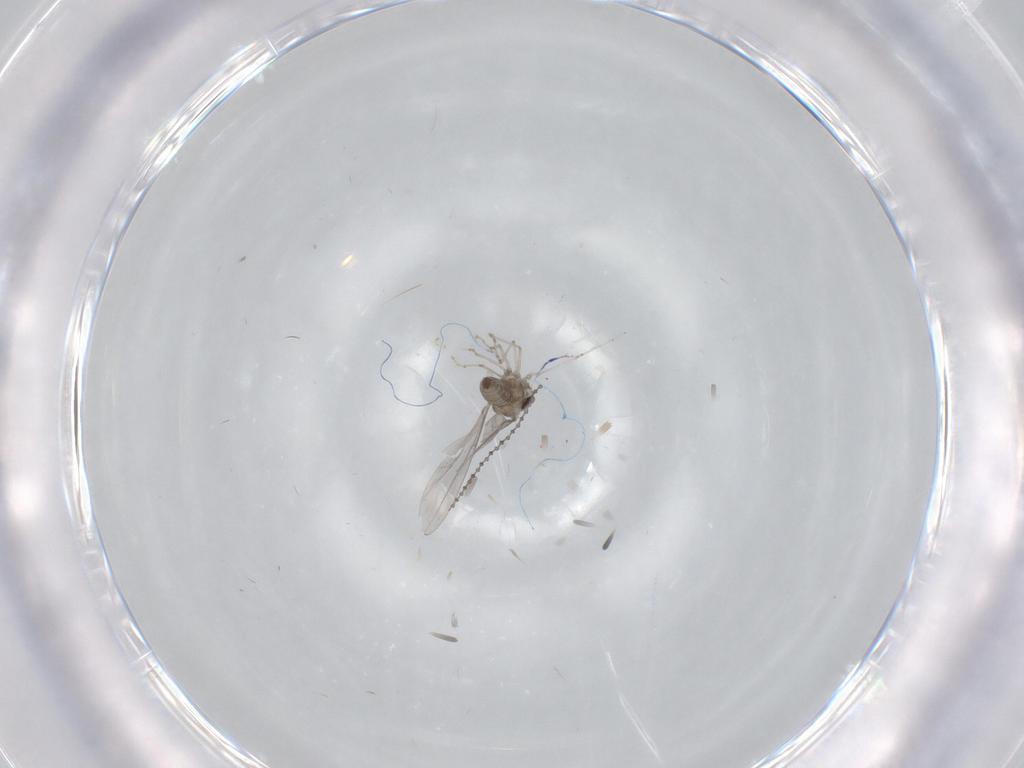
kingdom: Animalia
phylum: Arthropoda
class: Insecta
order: Diptera
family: Cecidomyiidae
